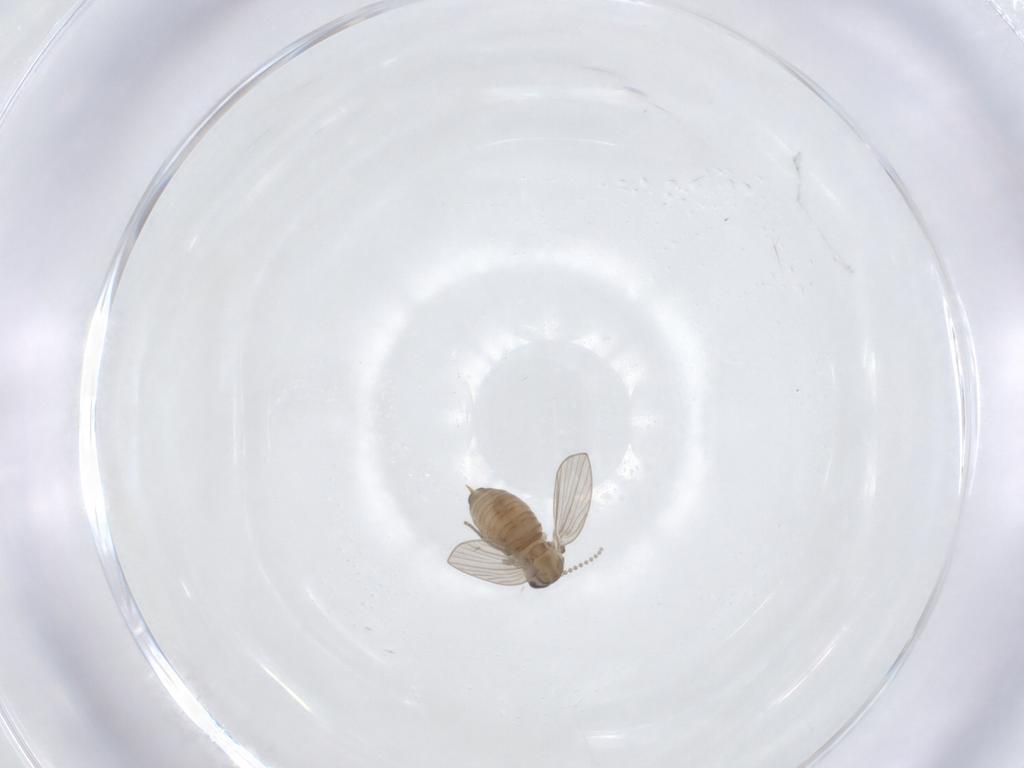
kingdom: Animalia
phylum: Arthropoda
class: Insecta
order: Diptera
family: Psychodidae
